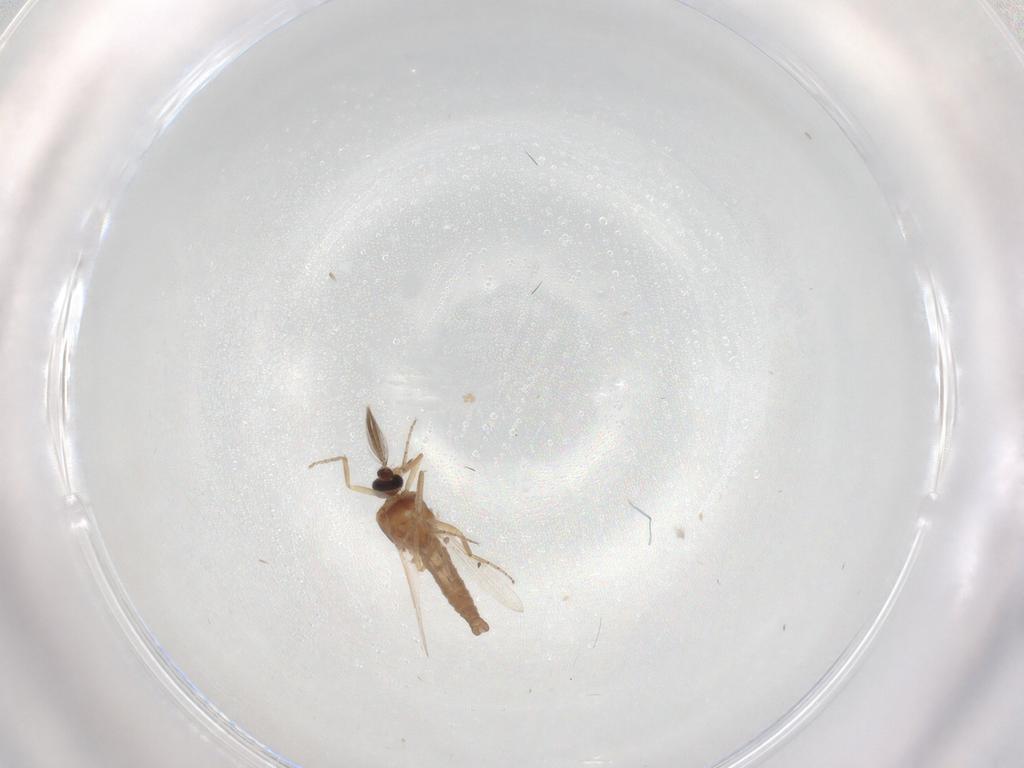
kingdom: Animalia
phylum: Arthropoda
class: Insecta
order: Diptera
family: Ceratopogonidae
